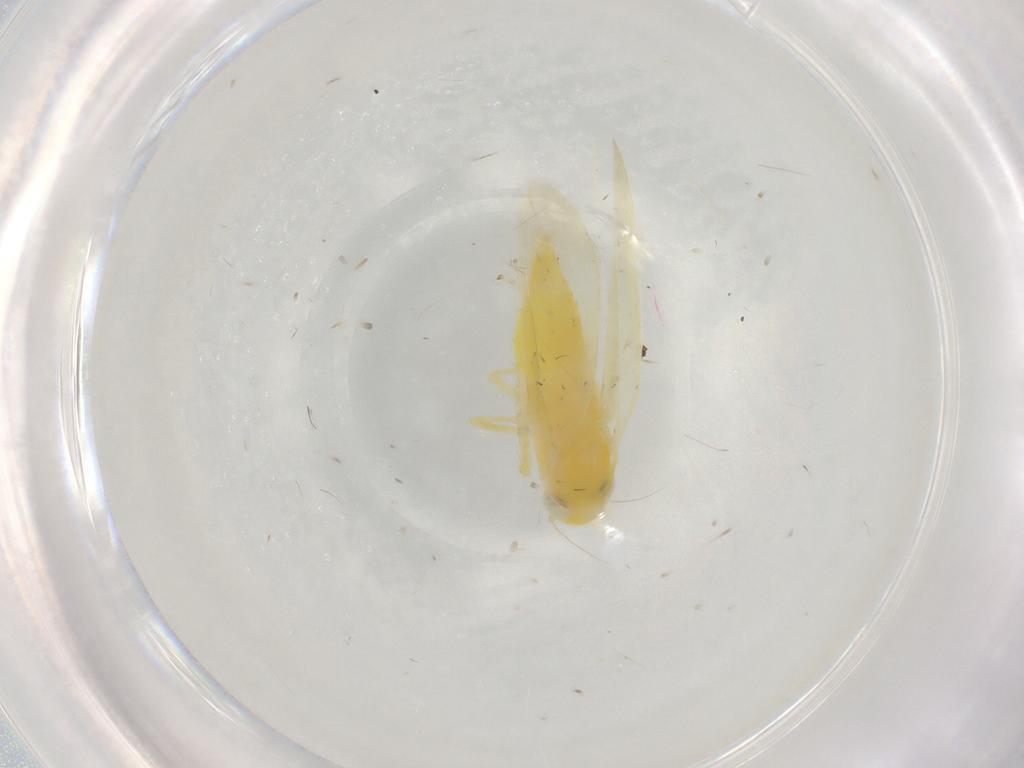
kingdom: Animalia
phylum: Arthropoda
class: Insecta
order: Hemiptera
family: Cicadellidae
